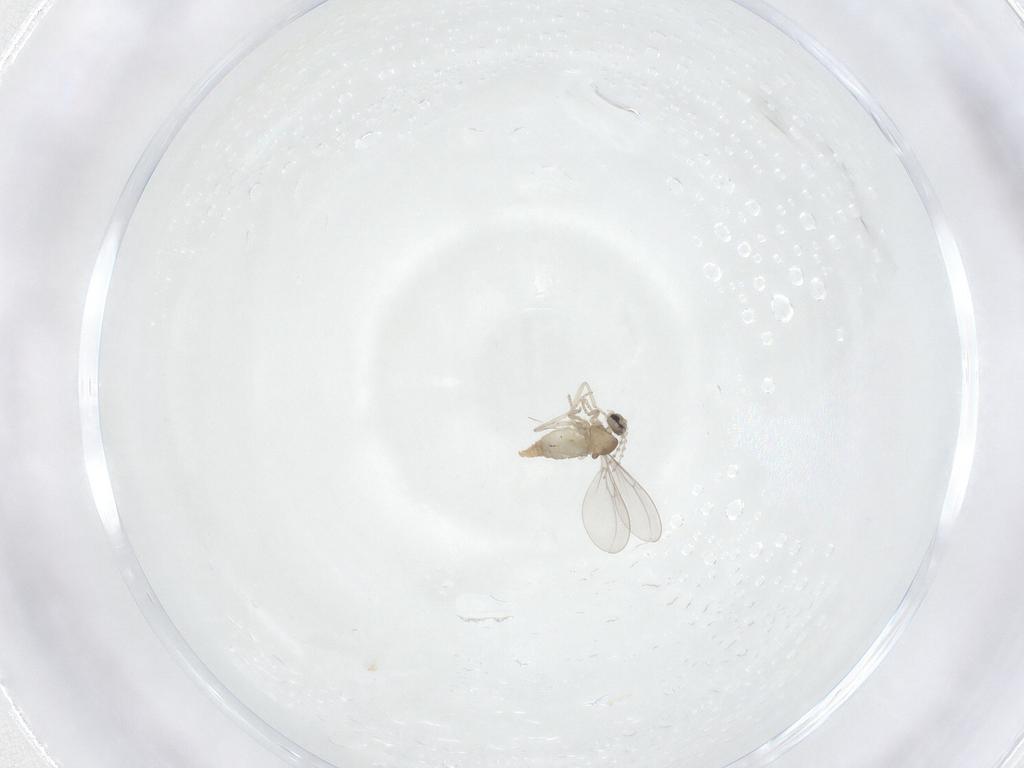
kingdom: Animalia
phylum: Arthropoda
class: Insecta
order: Diptera
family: Cecidomyiidae
